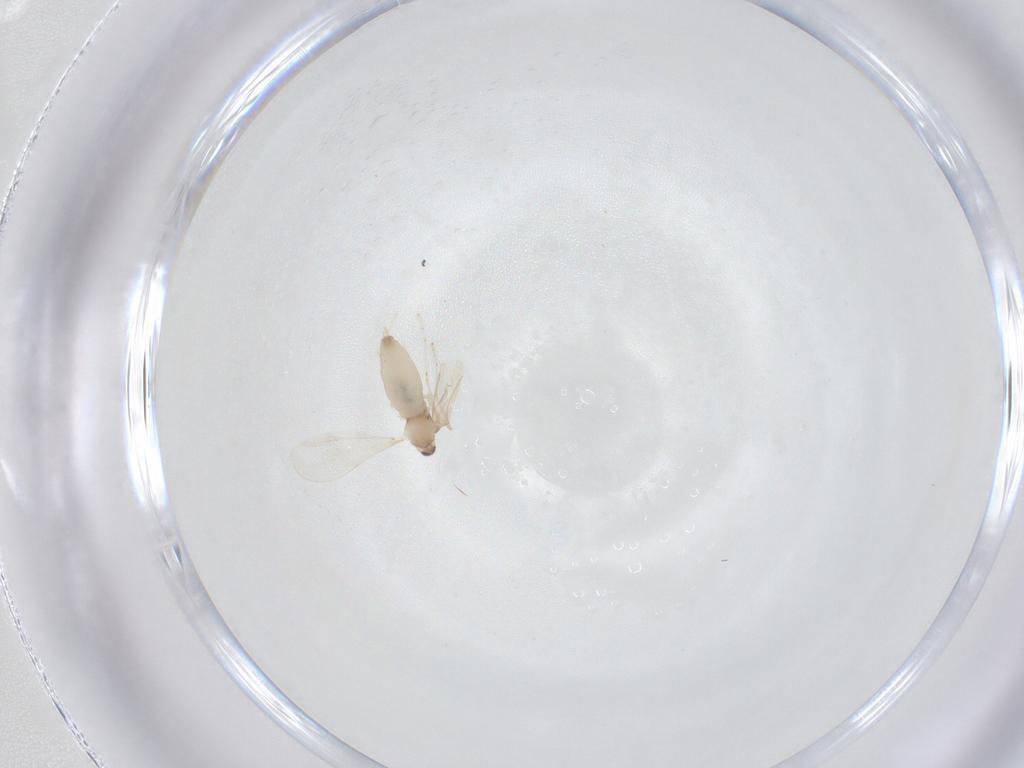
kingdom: Animalia
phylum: Arthropoda
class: Insecta
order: Diptera
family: Cecidomyiidae
